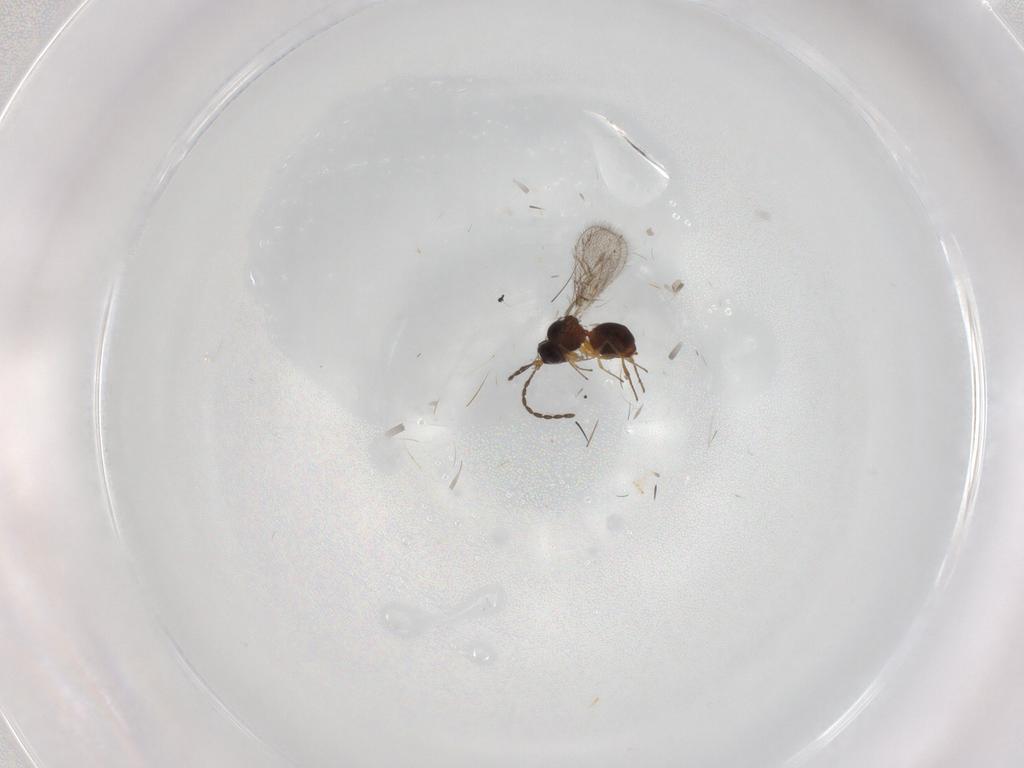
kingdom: Animalia
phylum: Arthropoda
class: Insecta
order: Hymenoptera
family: Figitidae
